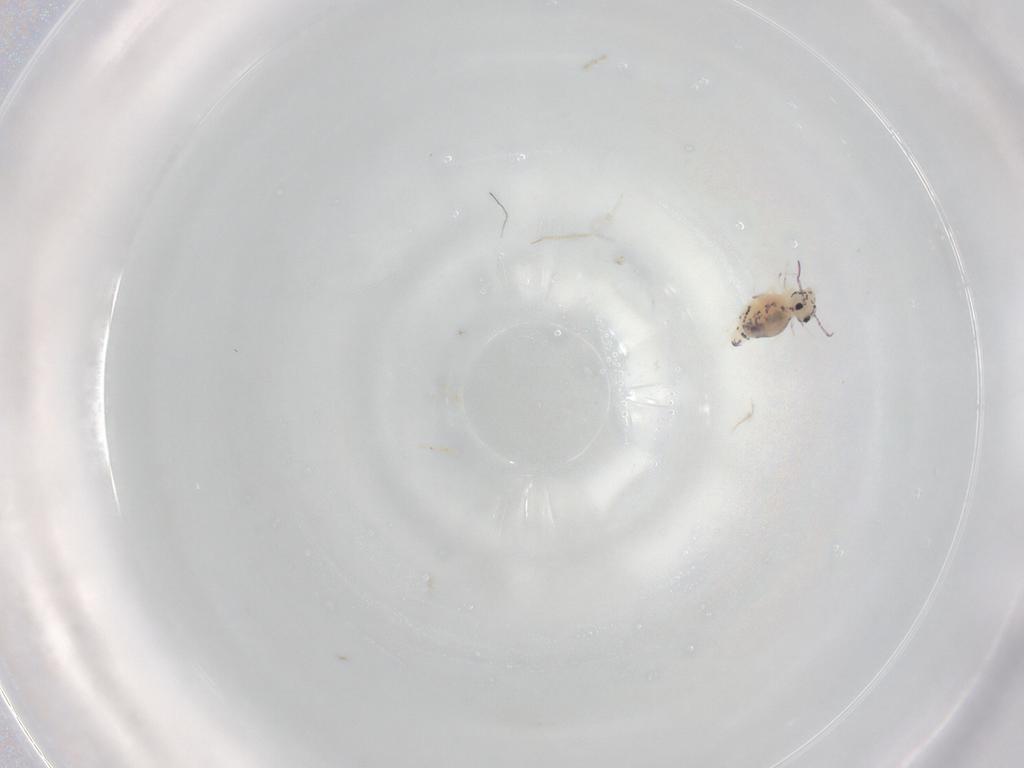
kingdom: Animalia
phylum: Arthropoda
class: Collembola
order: Symphypleona
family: Bourletiellidae
